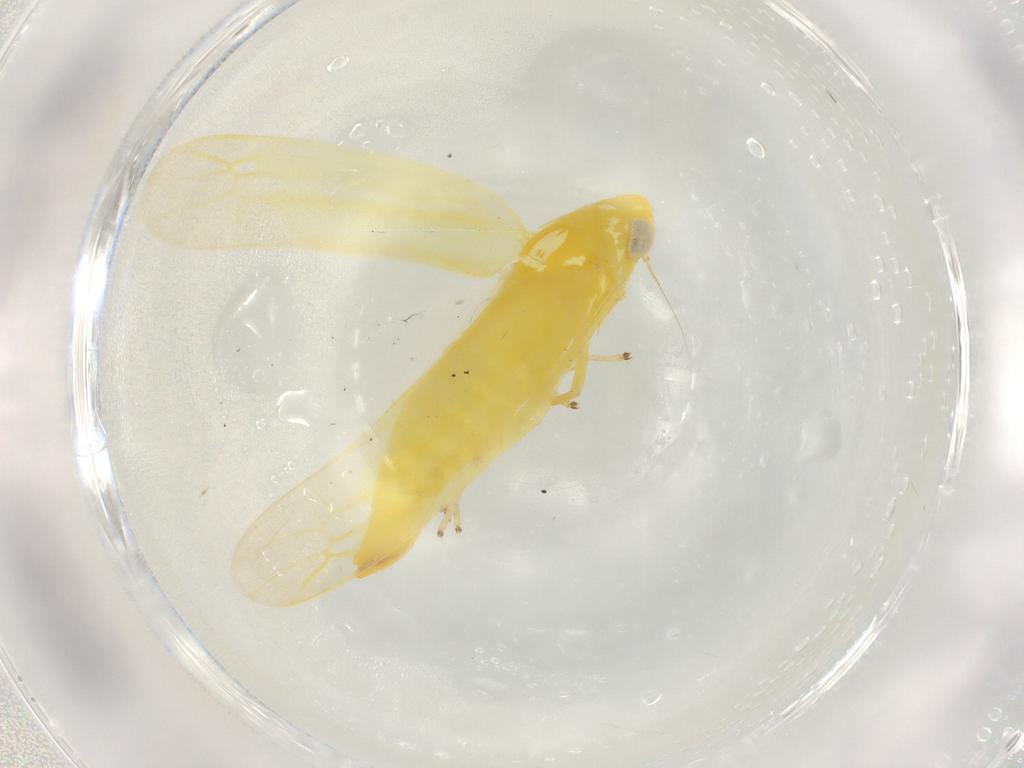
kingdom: Animalia
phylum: Arthropoda
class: Insecta
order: Hemiptera
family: Cicadellidae
